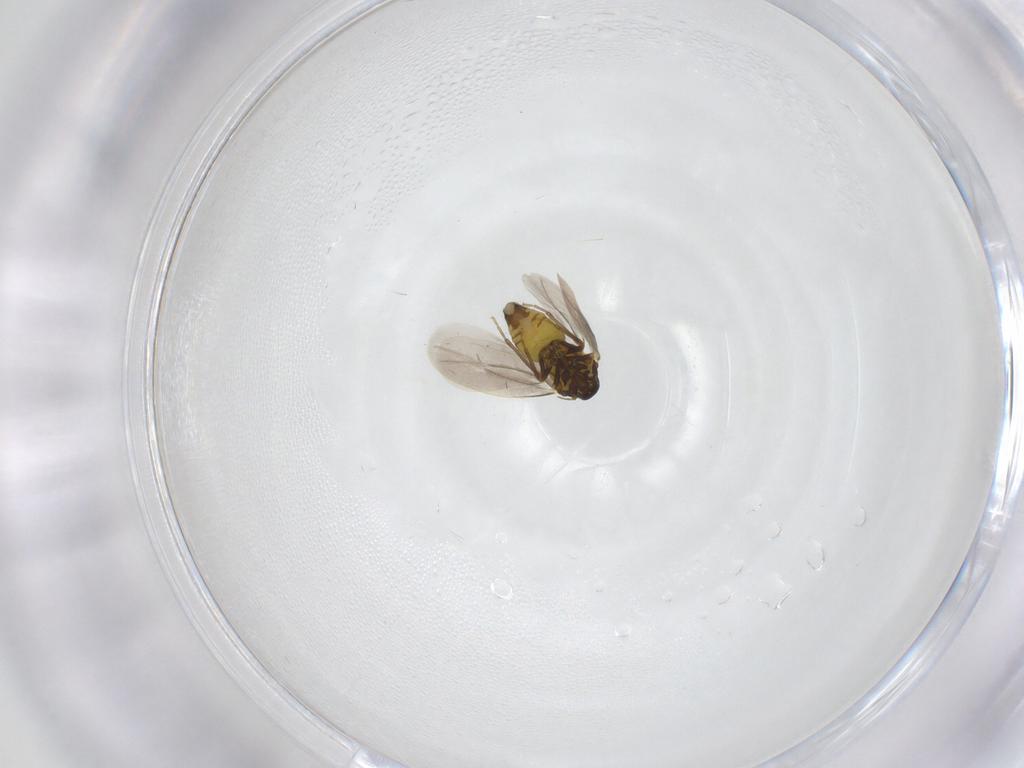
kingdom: Animalia
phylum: Arthropoda
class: Insecta
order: Hemiptera
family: Aleyrodidae
